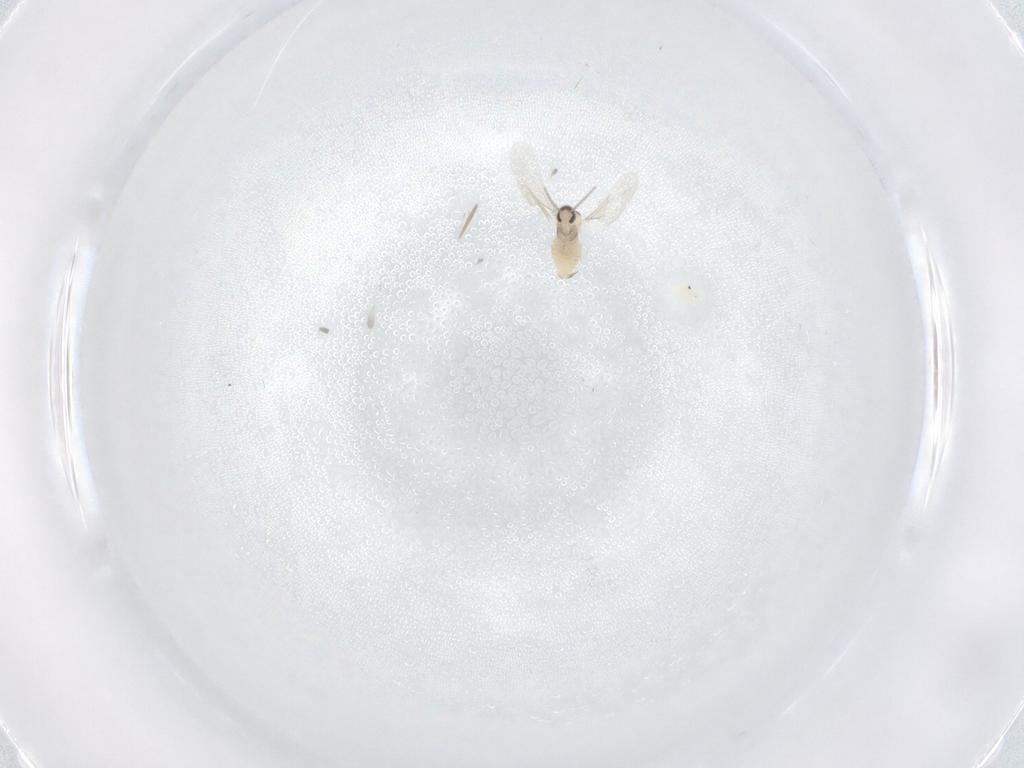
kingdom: Animalia
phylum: Arthropoda
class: Insecta
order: Diptera
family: Cecidomyiidae
